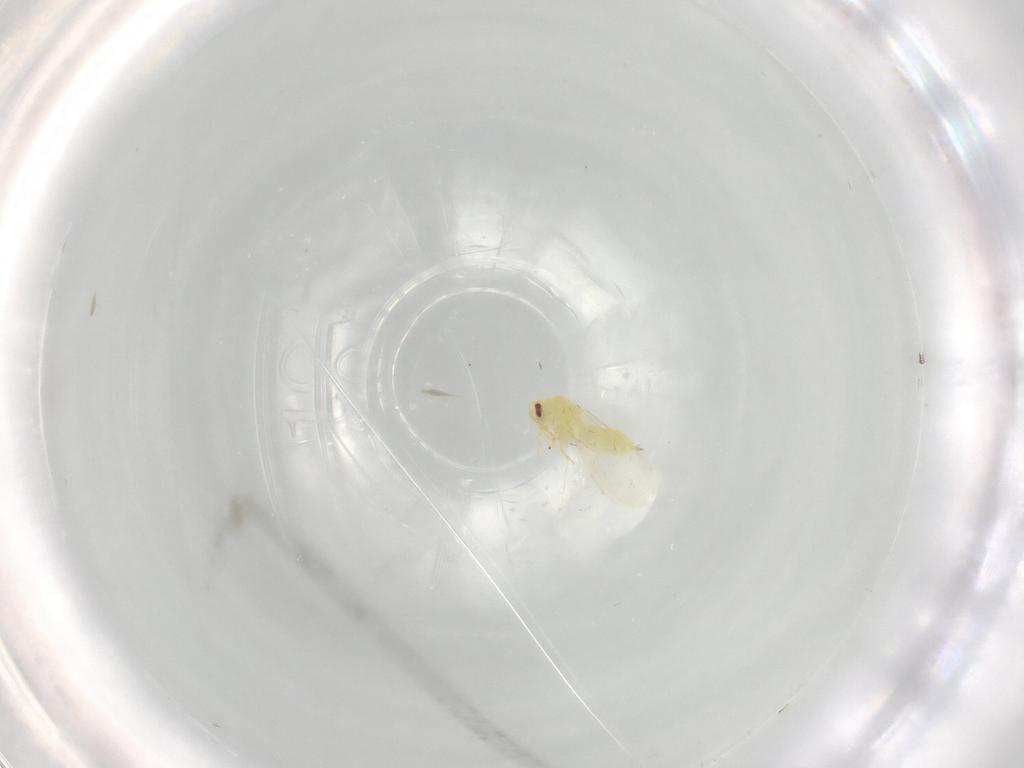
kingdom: Animalia
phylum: Arthropoda
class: Insecta
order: Hemiptera
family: Aleyrodidae
